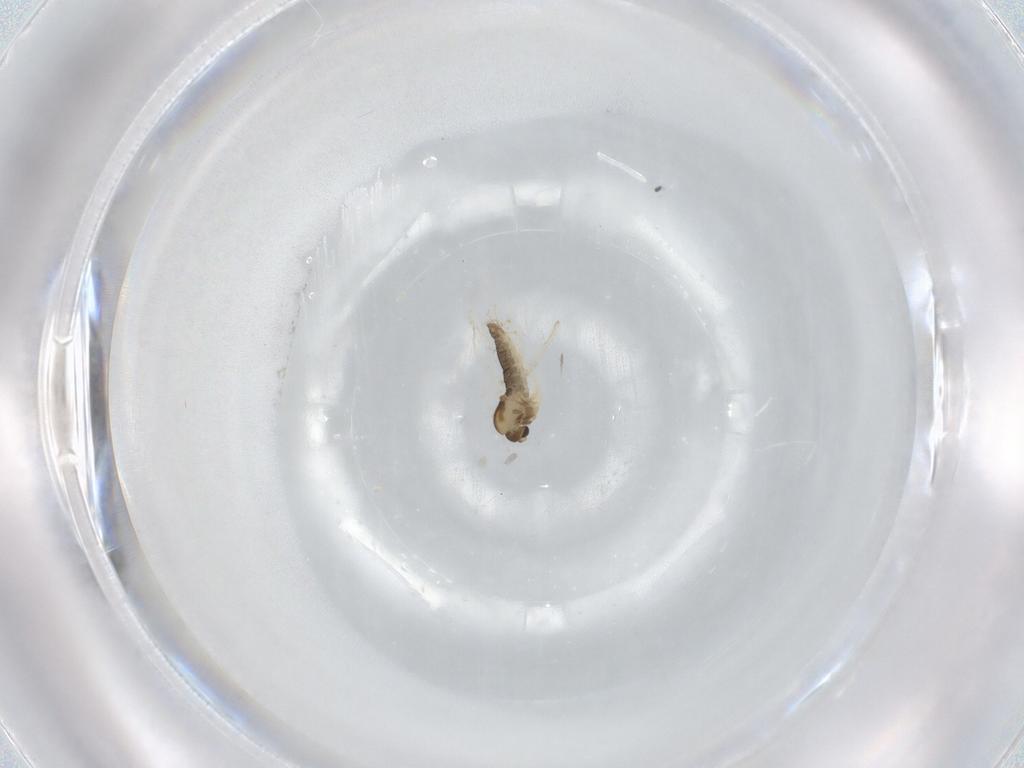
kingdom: Animalia
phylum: Arthropoda
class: Insecta
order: Diptera
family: Chironomidae
